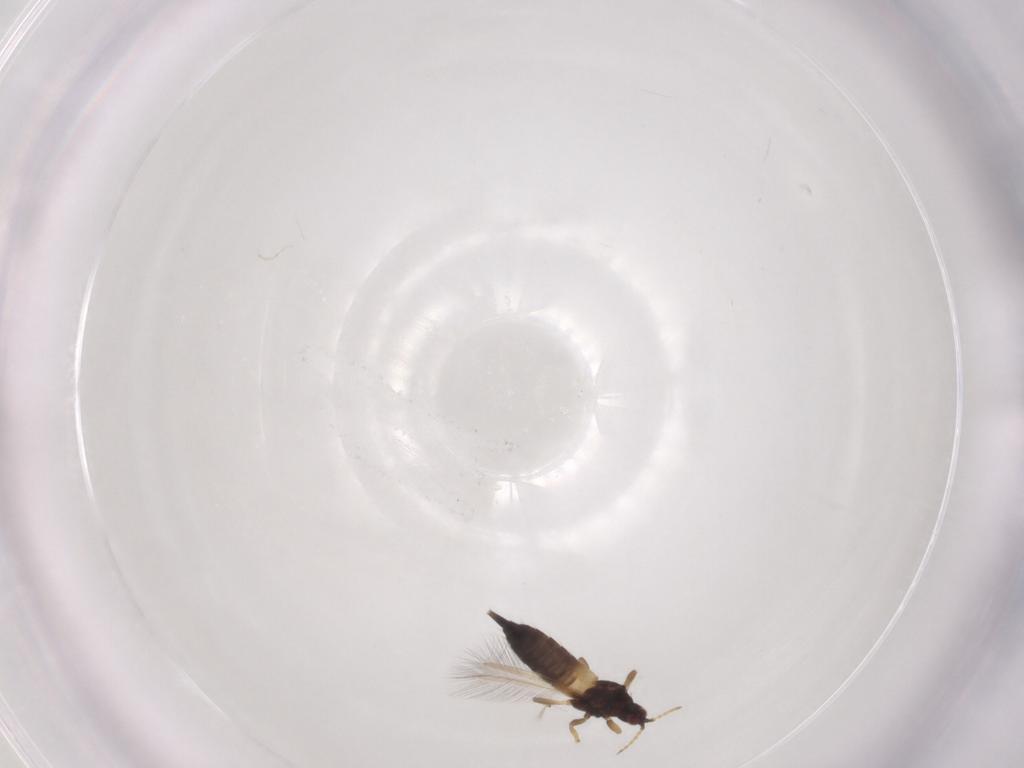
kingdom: Animalia
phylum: Arthropoda
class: Insecta
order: Thysanoptera
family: Phlaeothripidae
